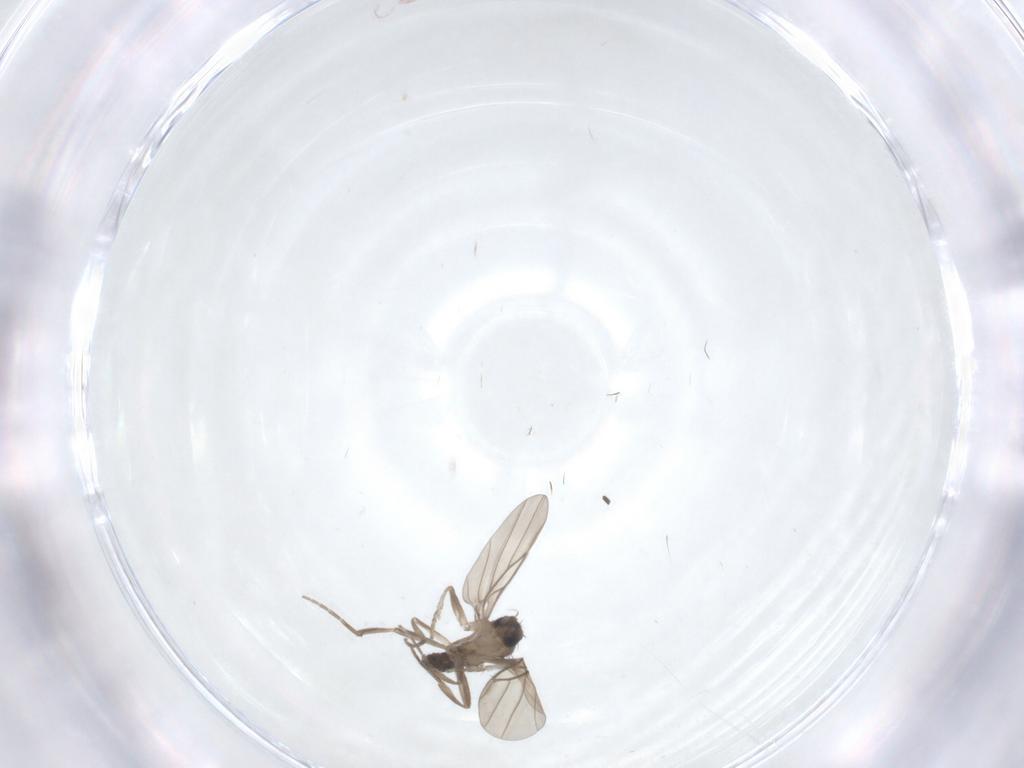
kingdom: Animalia
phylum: Arthropoda
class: Insecta
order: Diptera
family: Phoridae
